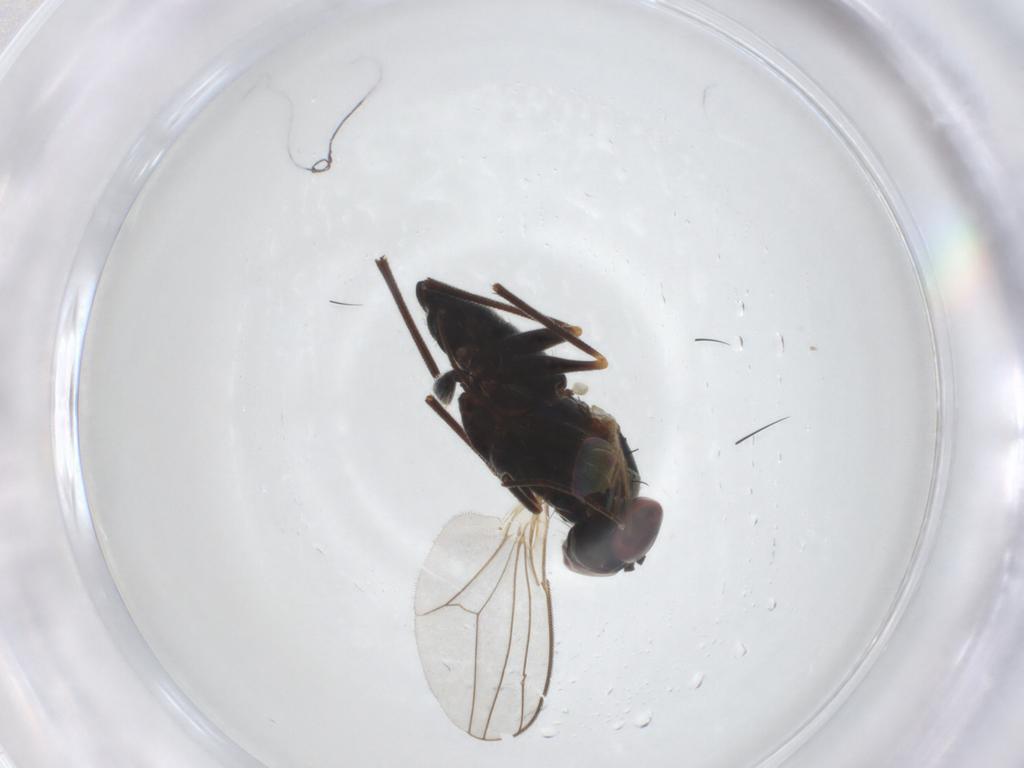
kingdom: Animalia
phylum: Arthropoda
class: Insecta
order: Diptera
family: Dolichopodidae
